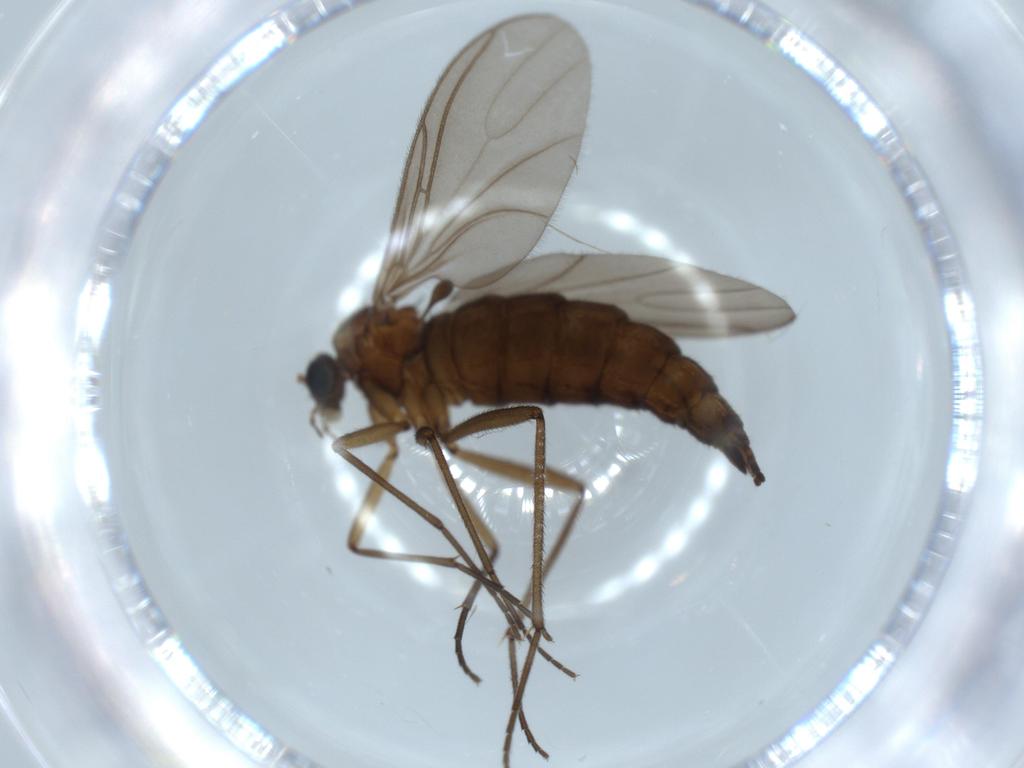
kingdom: Animalia
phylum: Arthropoda
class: Insecta
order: Diptera
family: Sciaridae
